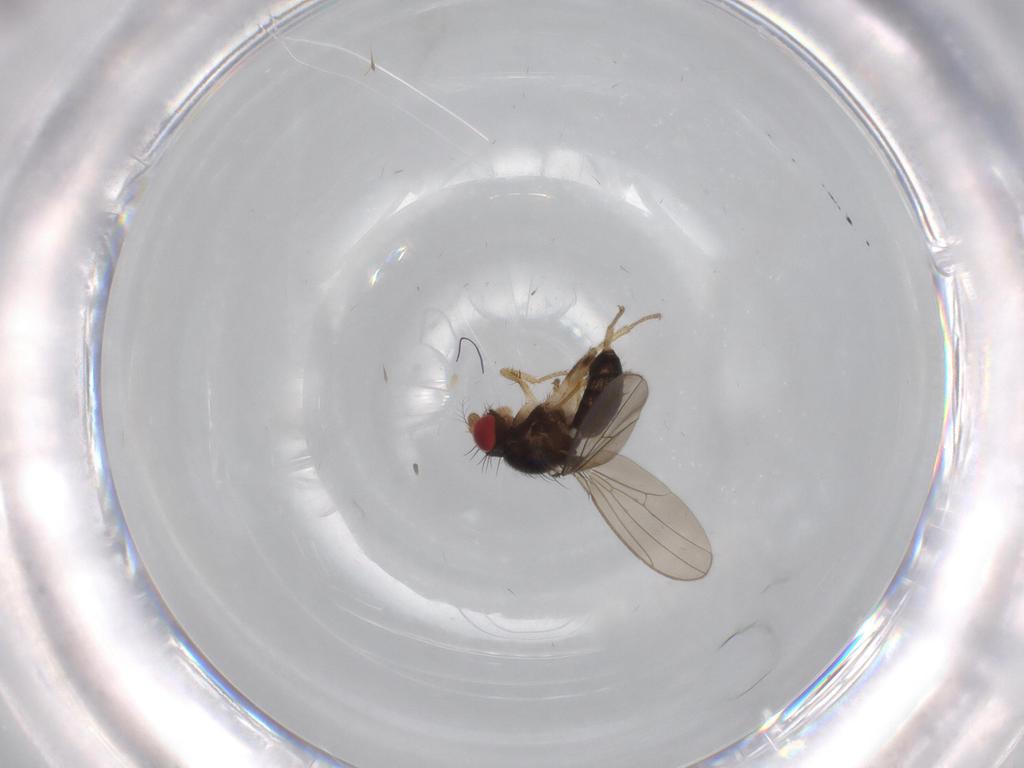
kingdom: Animalia
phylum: Arthropoda
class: Insecta
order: Diptera
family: Drosophilidae
